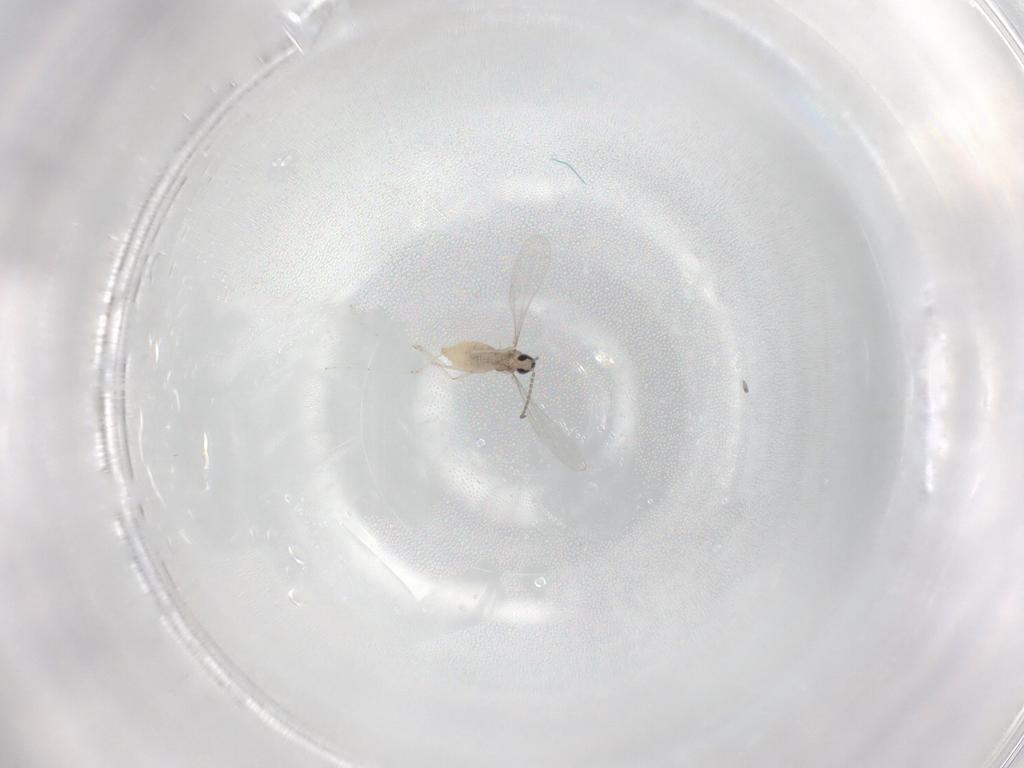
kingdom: Animalia
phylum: Arthropoda
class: Insecta
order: Diptera
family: Cecidomyiidae
